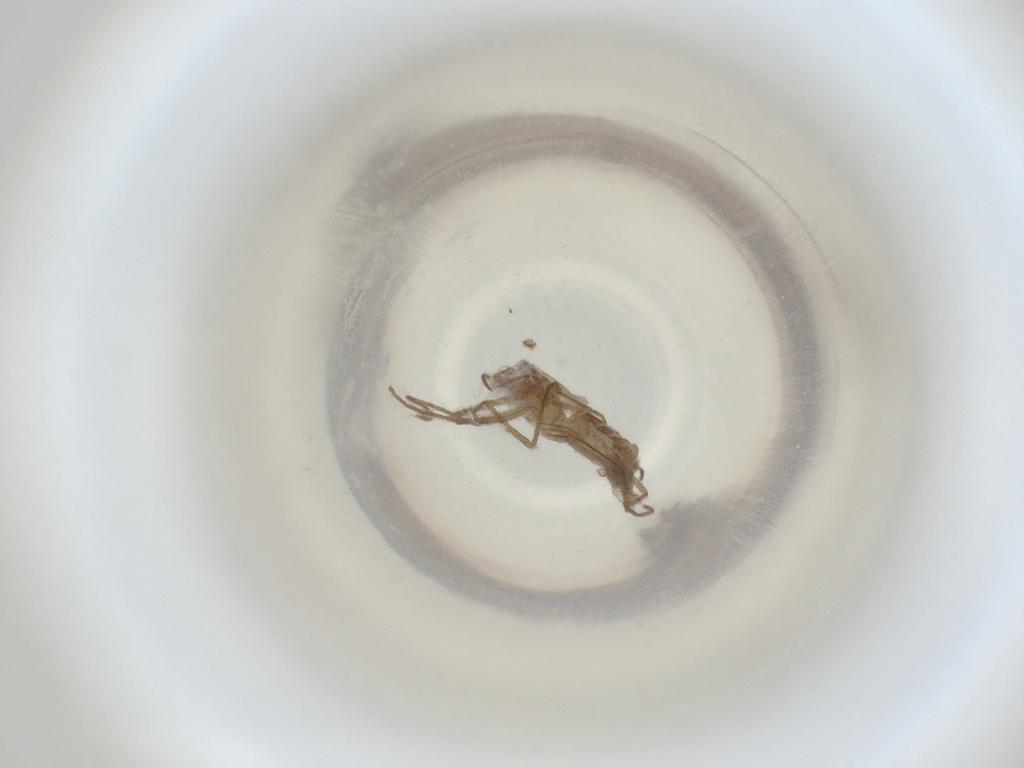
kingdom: Animalia
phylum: Arthropoda
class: Insecta
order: Diptera
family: Cecidomyiidae
